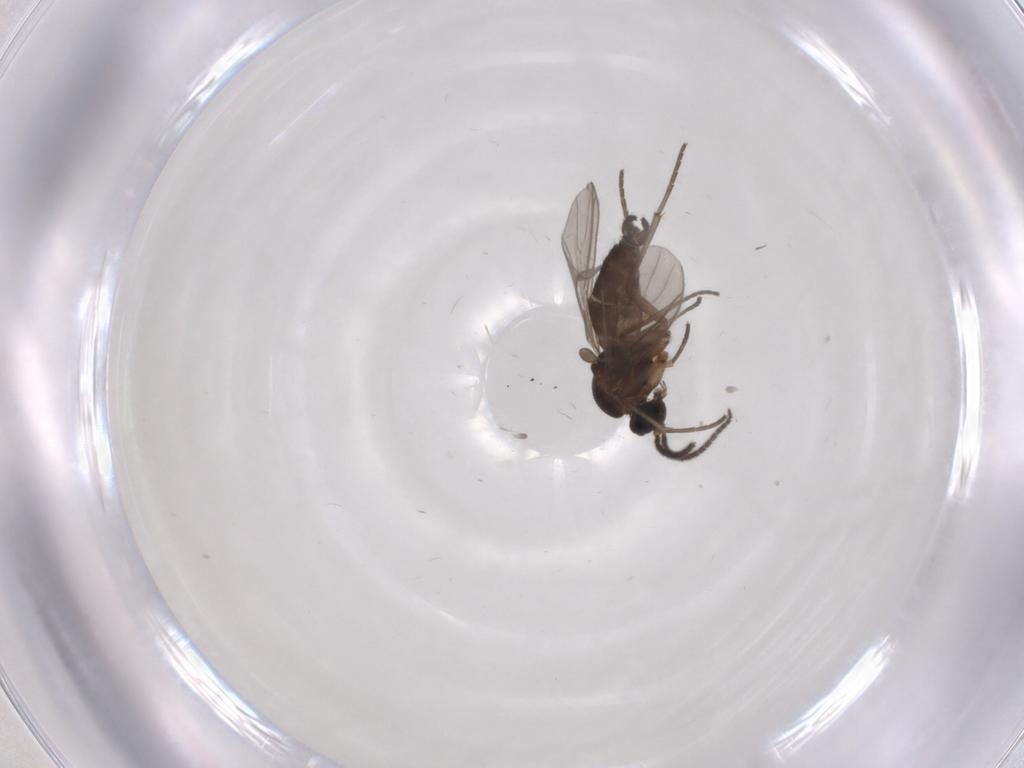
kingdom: Animalia
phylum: Arthropoda
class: Insecta
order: Diptera
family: Sciaridae
